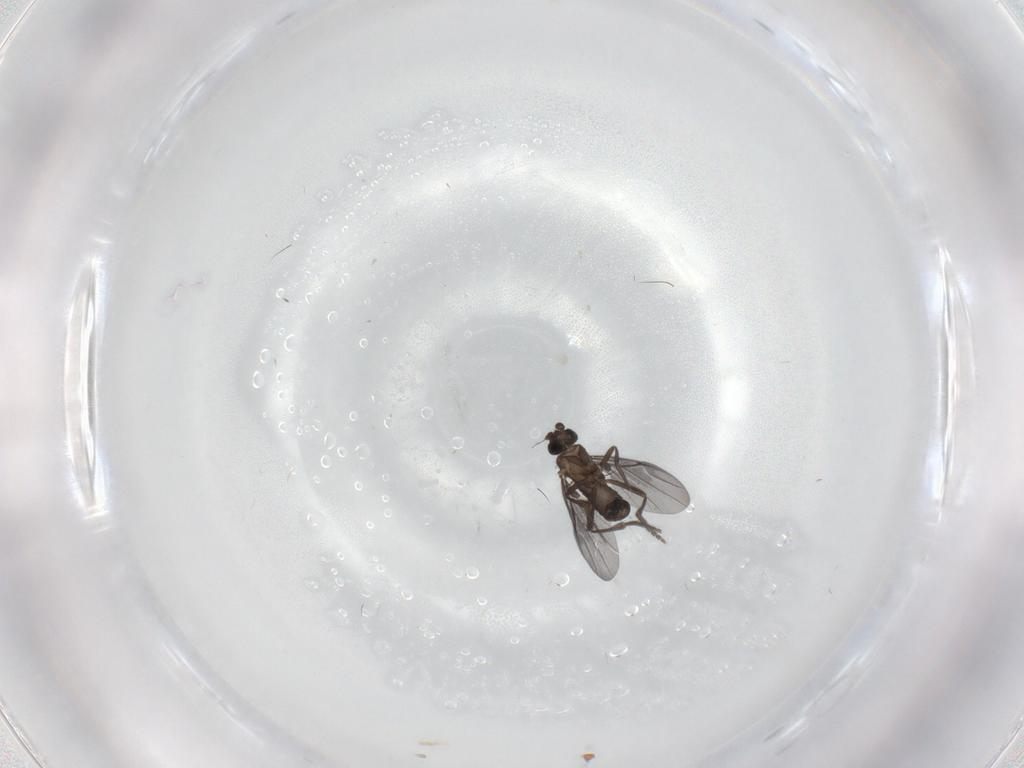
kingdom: Animalia
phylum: Arthropoda
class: Insecta
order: Diptera
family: Phoridae
